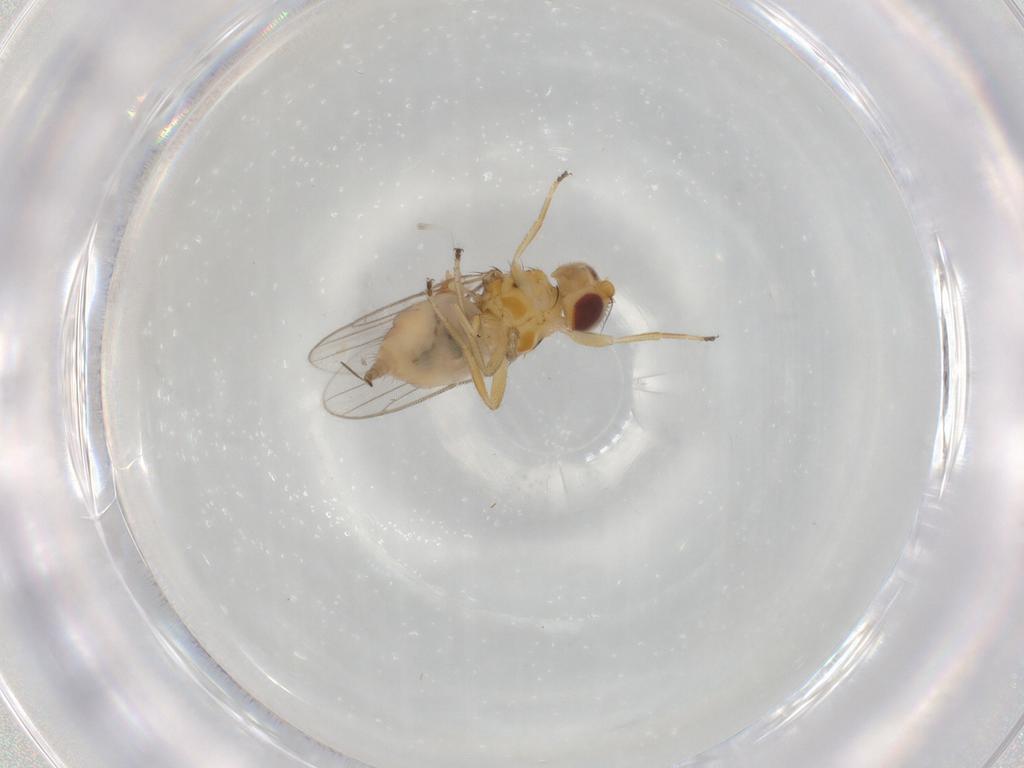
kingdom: Animalia
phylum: Arthropoda
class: Insecta
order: Diptera
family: Chloropidae
